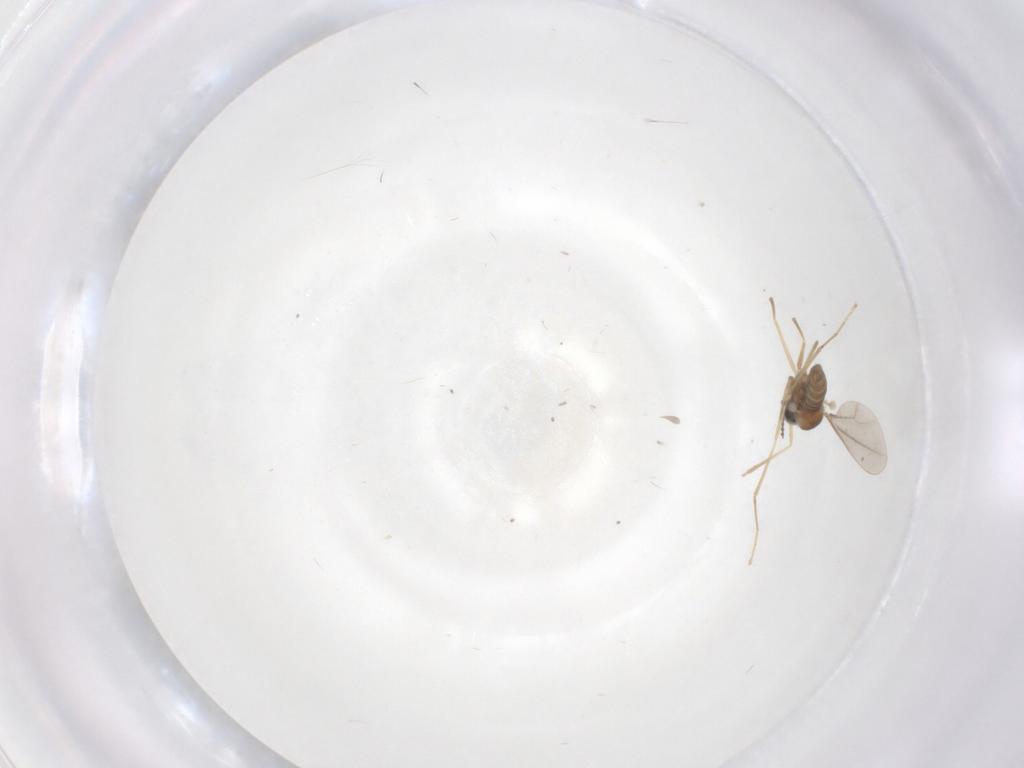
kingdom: Animalia
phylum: Arthropoda
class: Insecta
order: Diptera
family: Cecidomyiidae
